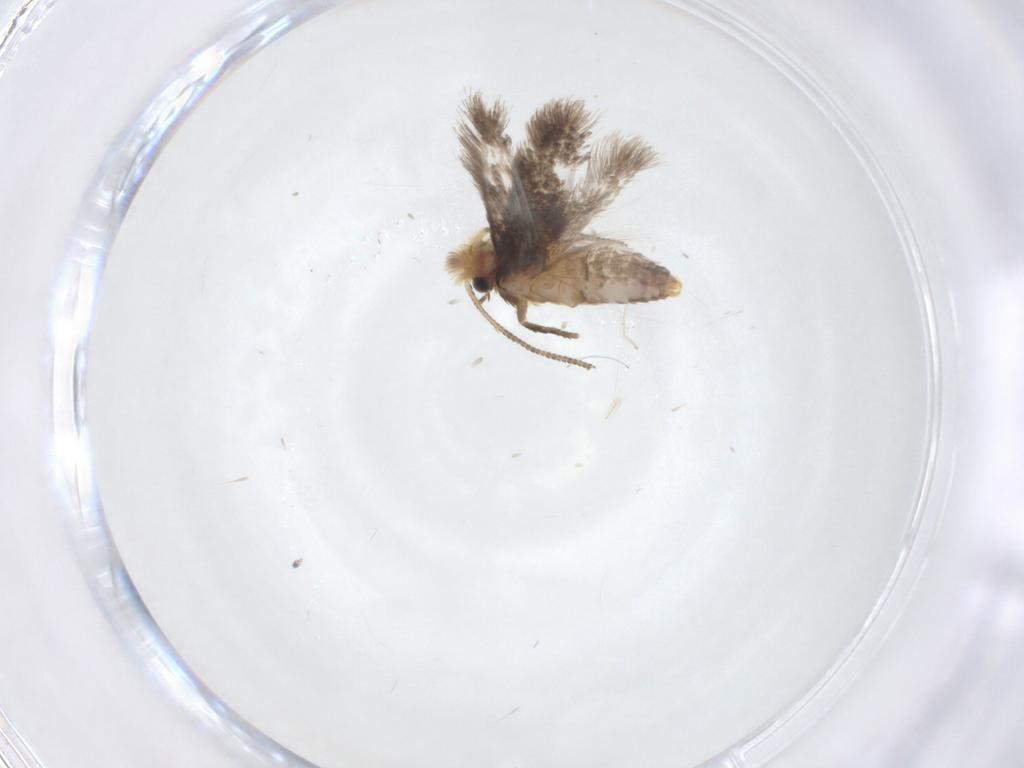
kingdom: Animalia
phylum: Arthropoda
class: Insecta
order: Lepidoptera
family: Nepticulidae
